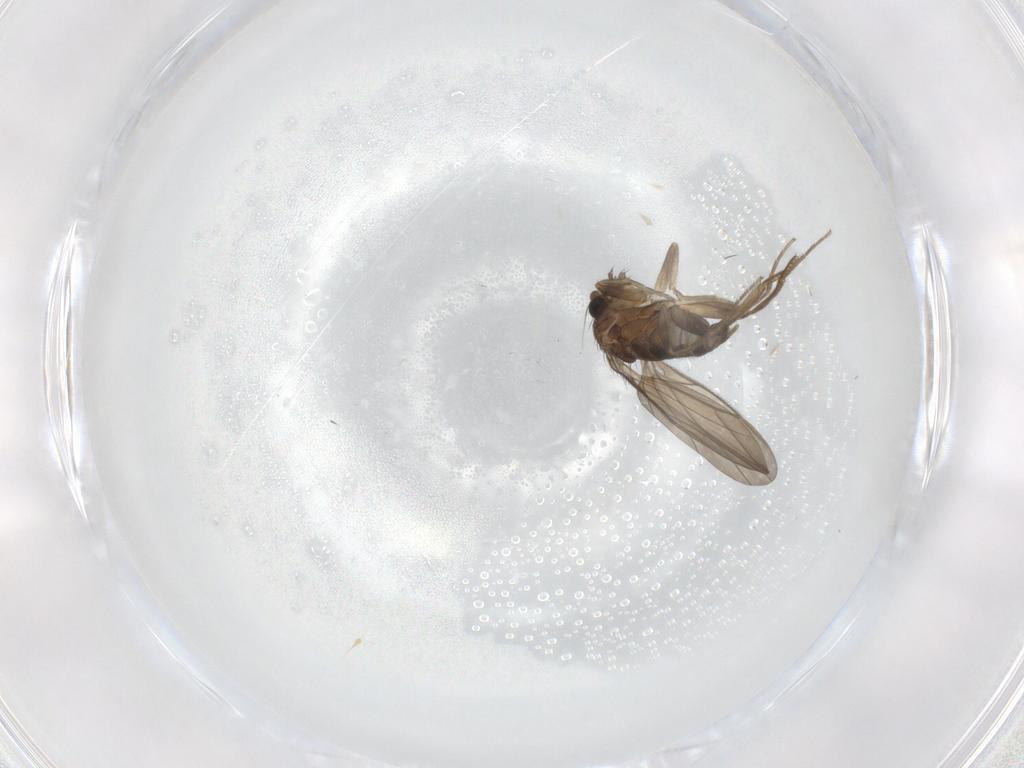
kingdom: Animalia
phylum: Arthropoda
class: Insecta
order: Diptera
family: Phoridae
